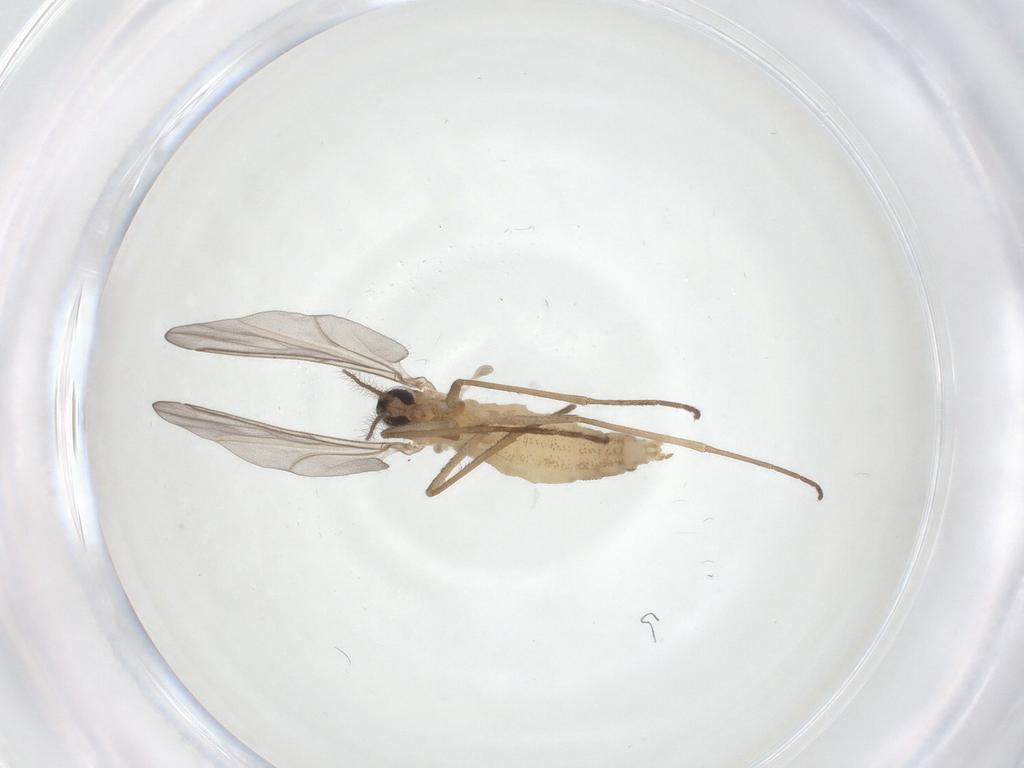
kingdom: Animalia
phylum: Arthropoda
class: Insecta
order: Diptera
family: Cecidomyiidae
